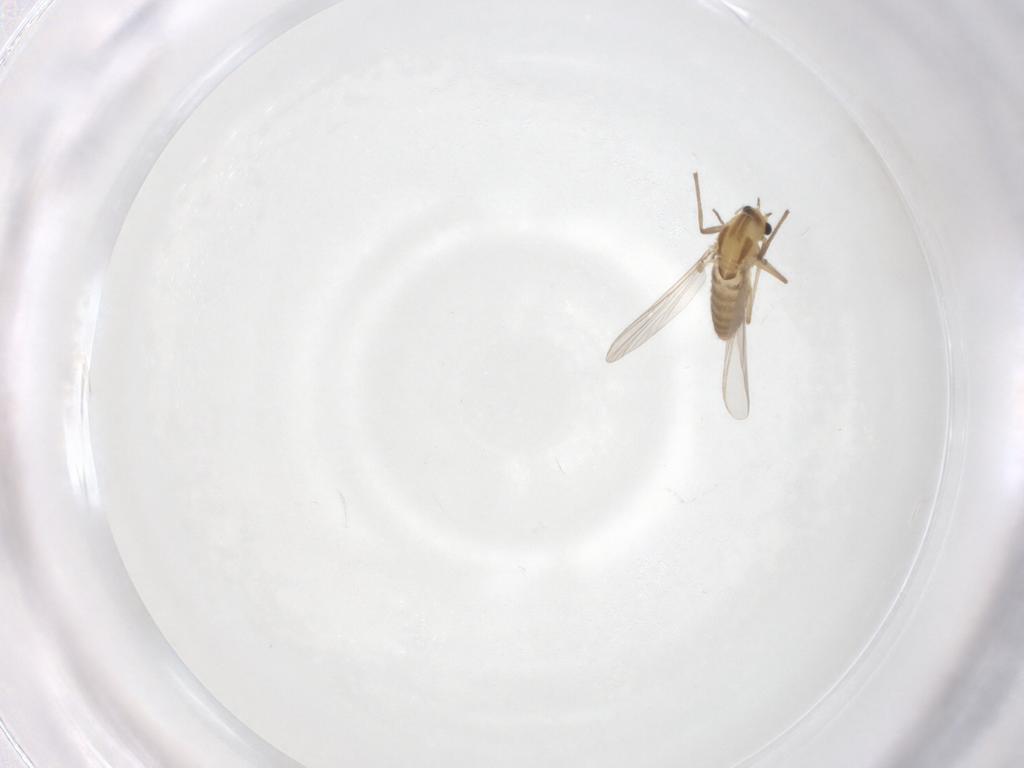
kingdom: Animalia
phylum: Arthropoda
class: Insecta
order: Diptera
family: Chironomidae
